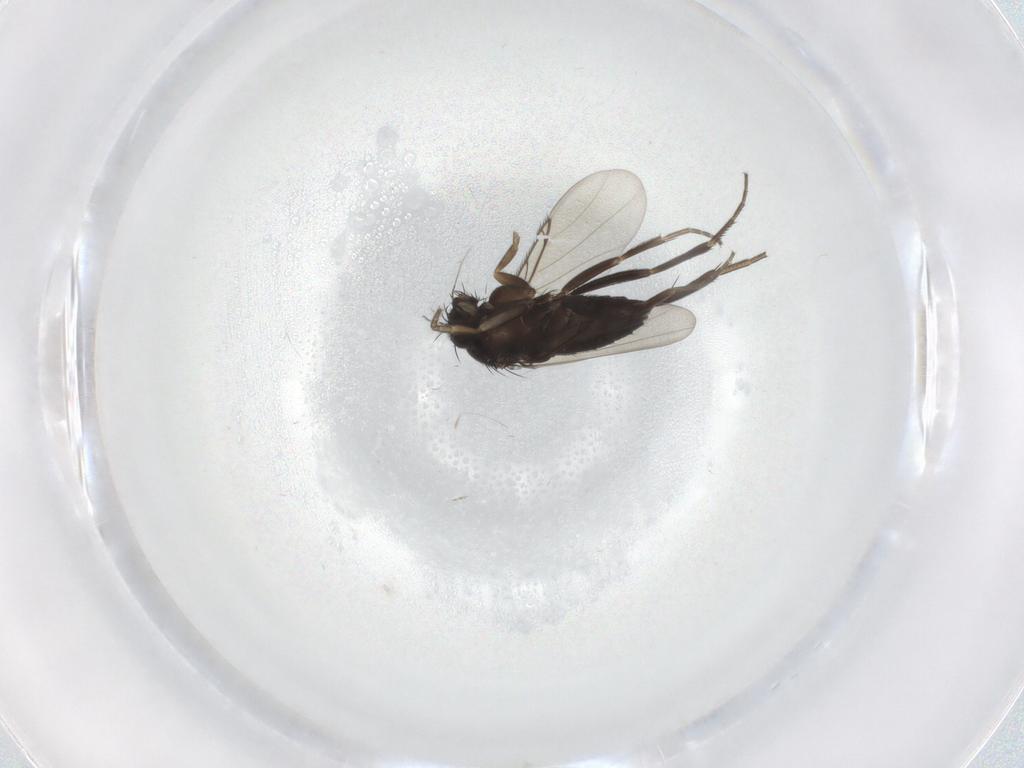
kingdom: Animalia
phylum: Arthropoda
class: Insecta
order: Diptera
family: Phoridae
